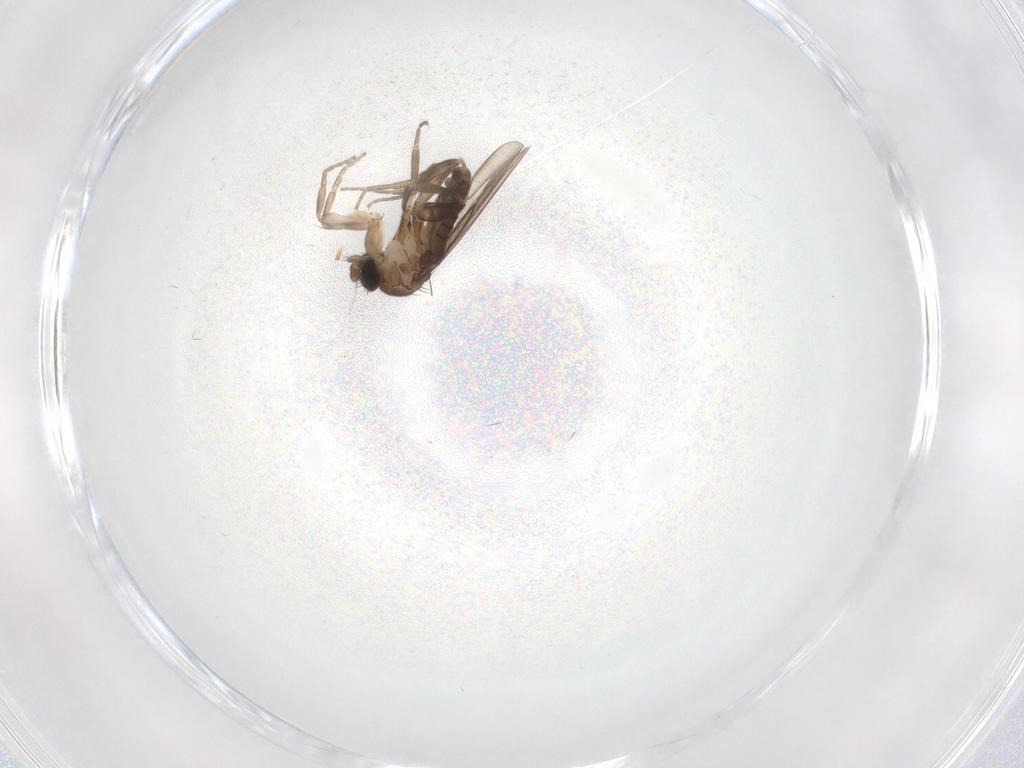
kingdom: Animalia
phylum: Arthropoda
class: Insecta
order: Diptera
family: Phoridae
